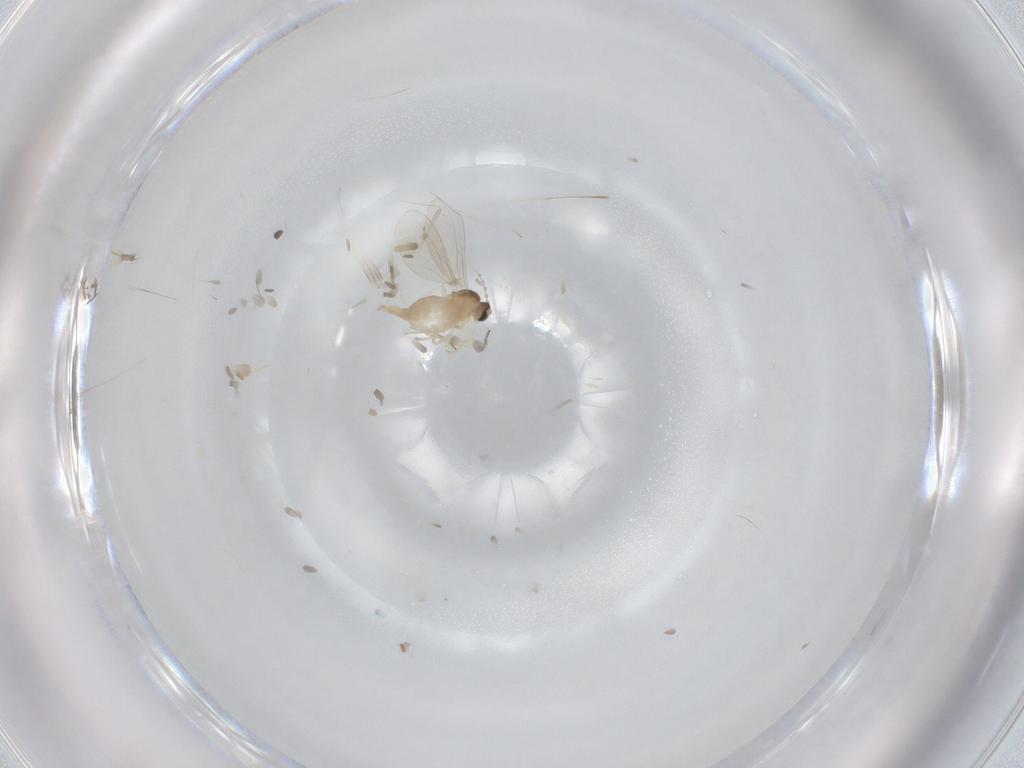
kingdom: Animalia
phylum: Arthropoda
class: Insecta
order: Diptera
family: Cecidomyiidae
